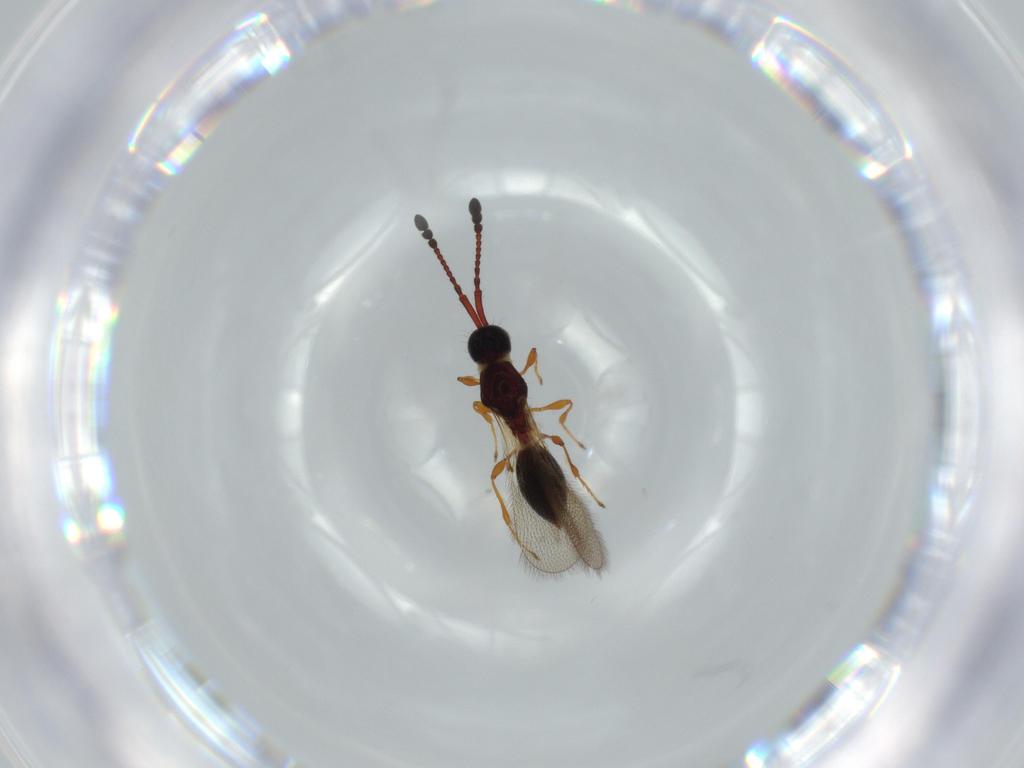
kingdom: Animalia
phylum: Arthropoda
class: Insecta
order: Hymenoptera
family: Diapriidae
